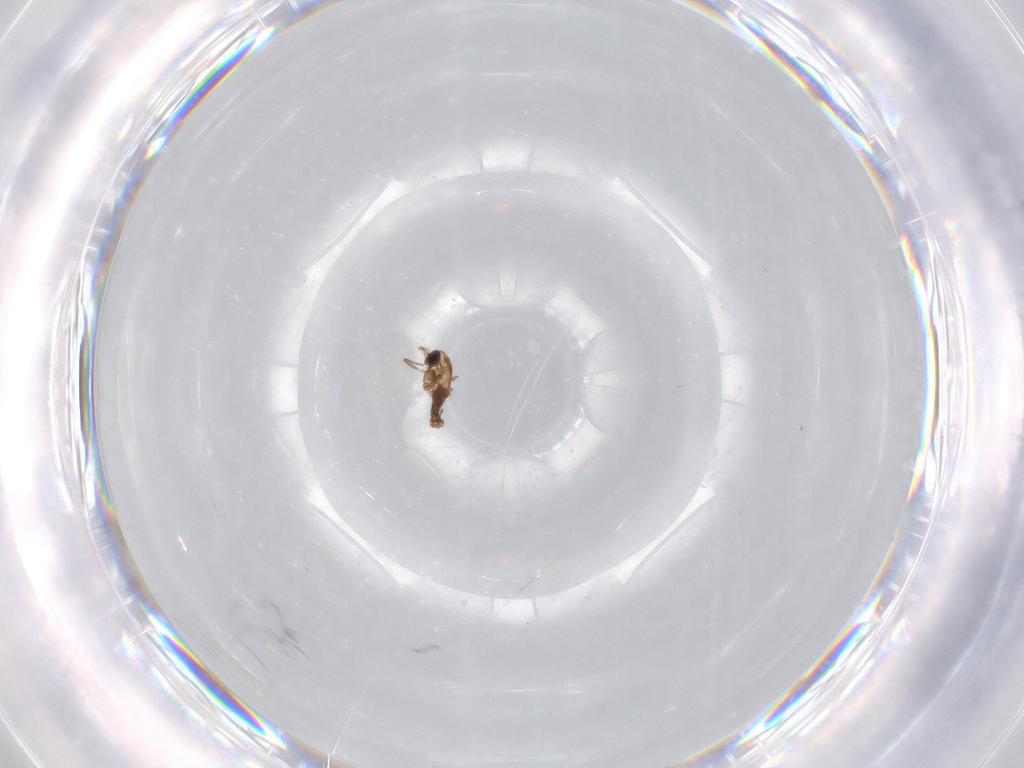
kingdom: Animalia
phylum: Arthropoda
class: Insecta
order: Diptera
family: Chironomidae
